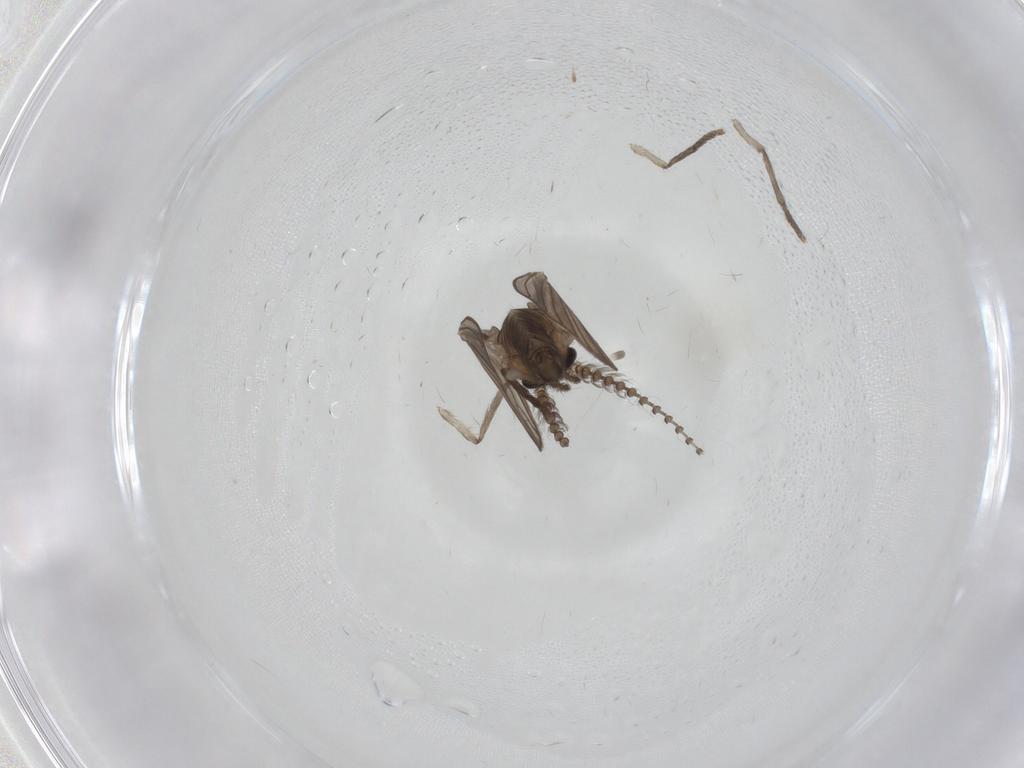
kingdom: Animalia
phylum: Arthropoda
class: Insecta
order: Diptera
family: Psychodidae
